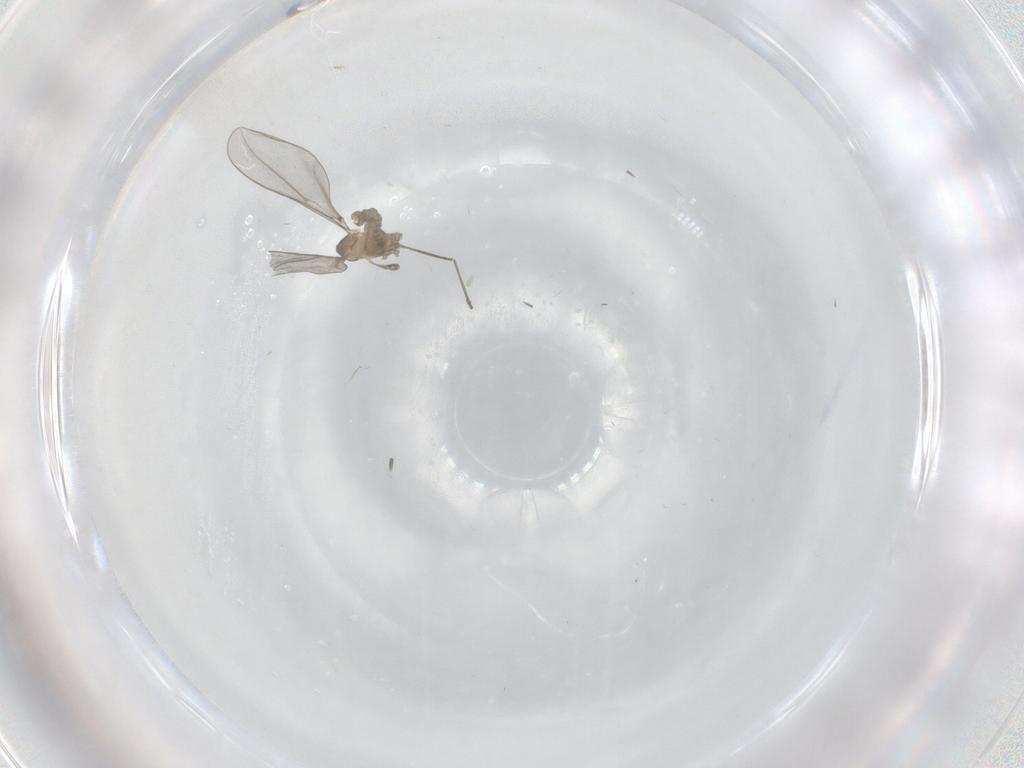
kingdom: Animalia
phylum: Arthropoda
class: Insecta
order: Diptera
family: Cecidomyiidae
